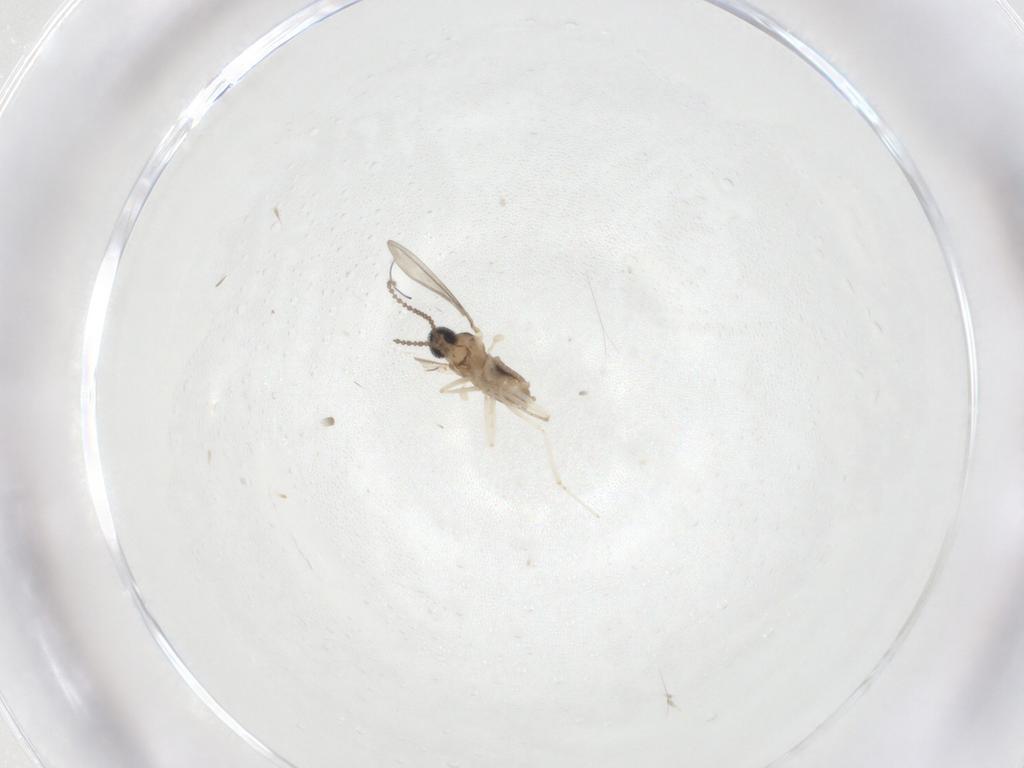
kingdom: Animalia
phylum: Arthropoda
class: Insecta
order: Diptera
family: Cecidomyiidae
